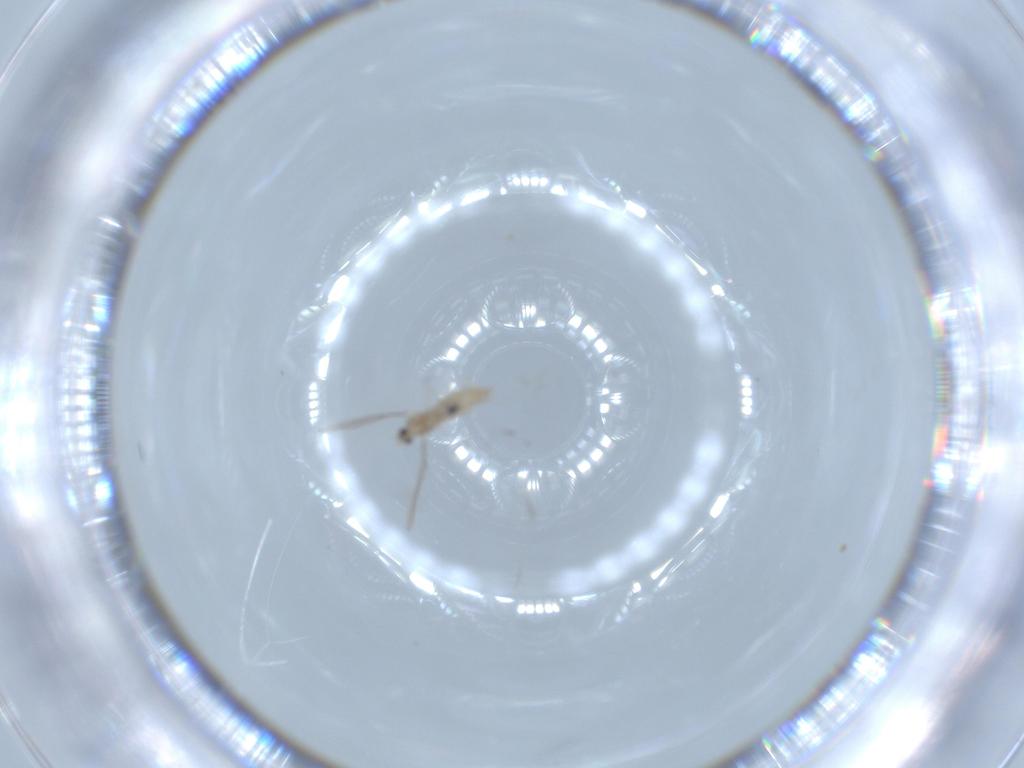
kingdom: Animalia
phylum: Arthropoda
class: Insecta
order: Diptera
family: Cecidomyiidae
